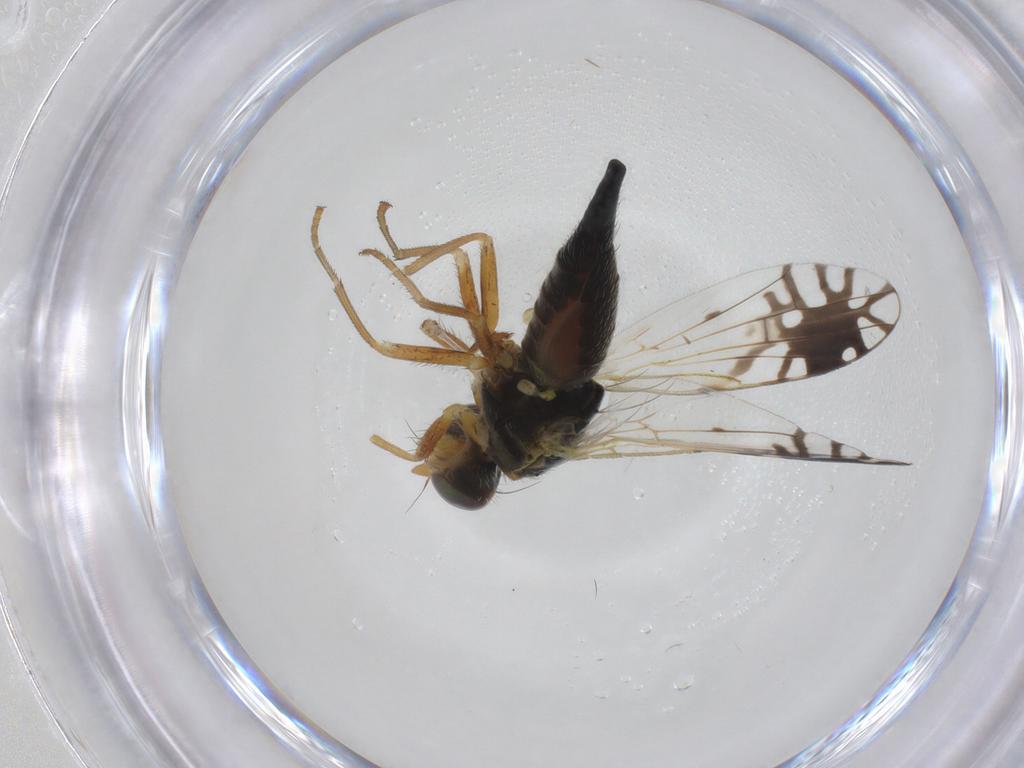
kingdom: Animalia
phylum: Arthropoda
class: Insecta
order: Diptera
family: Tephritidae
